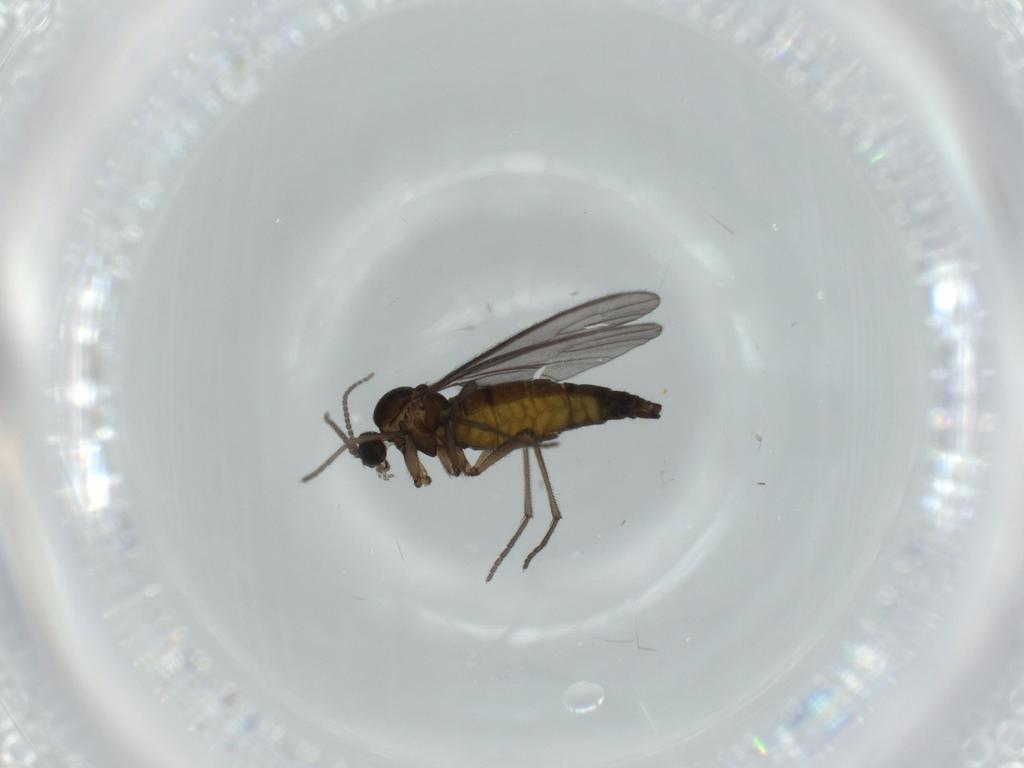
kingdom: Animalia
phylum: Arthropoda
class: Insecta
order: Diptera
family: Sciaridae
